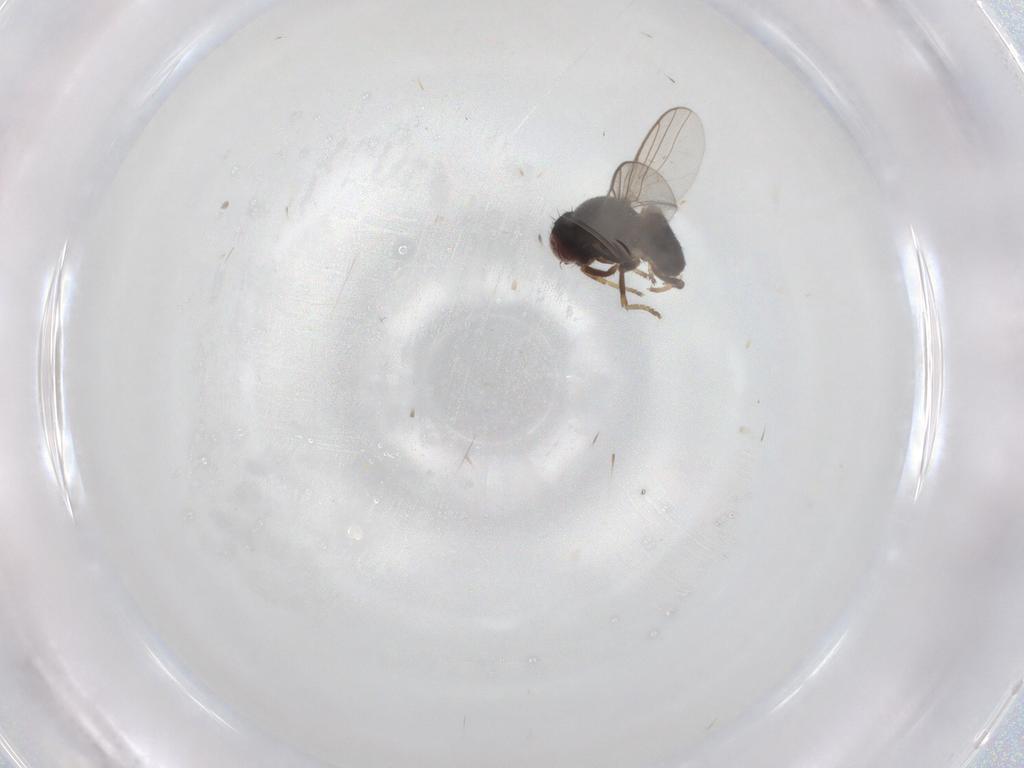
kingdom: Animalia
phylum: Arthropoda
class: Insecta
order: Diptera
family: Chloropidae
